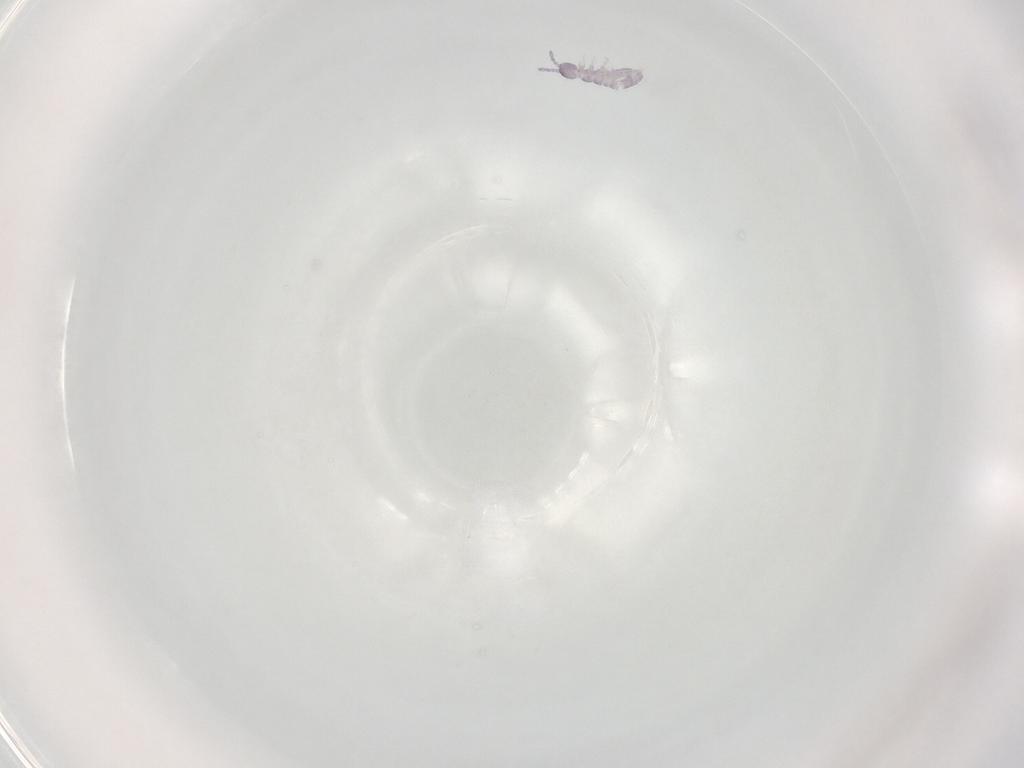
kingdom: Animalia
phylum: Arthropoda
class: Collembola
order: Entomobryomorpha
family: Isotomidae
